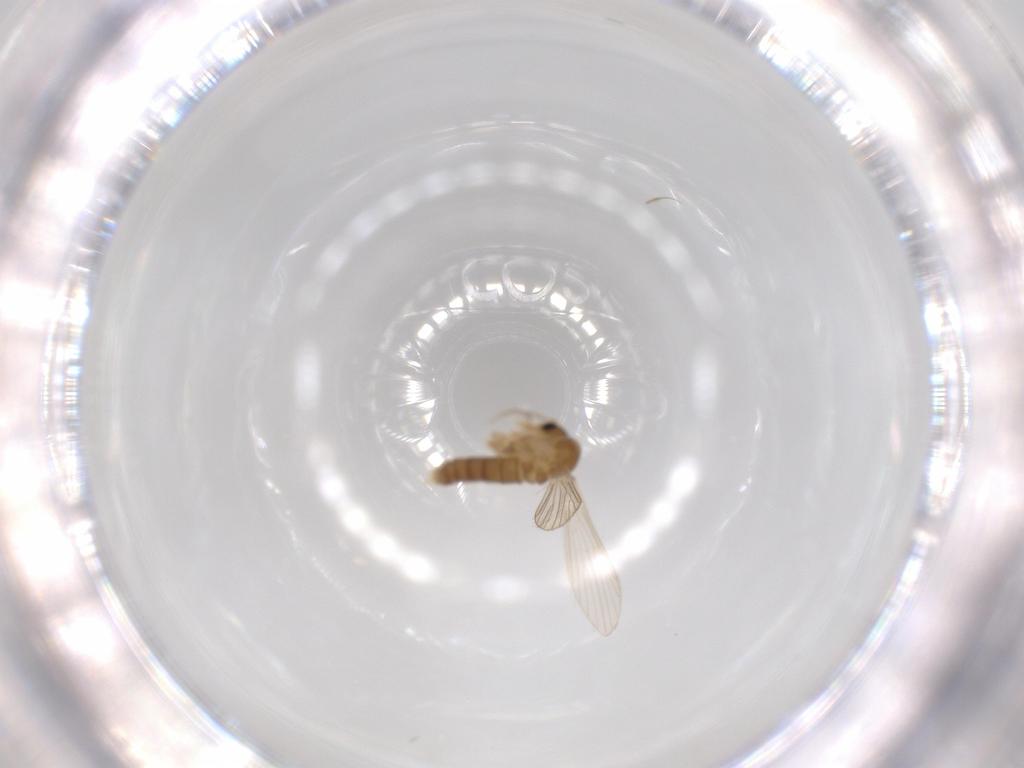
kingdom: Animalia
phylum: Arthropoda
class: Insecta
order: Diptera
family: Psychodidae
